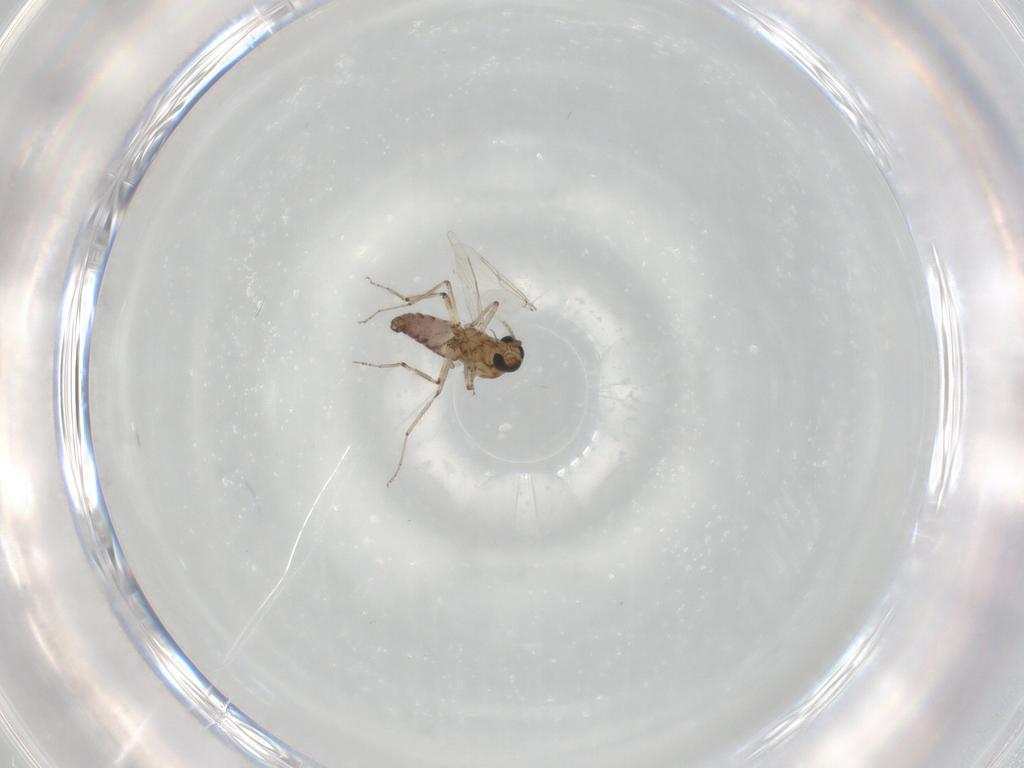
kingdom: Animalia
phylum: Arthropoda
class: Insecta
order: Diptera
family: Ceratopogonidae
